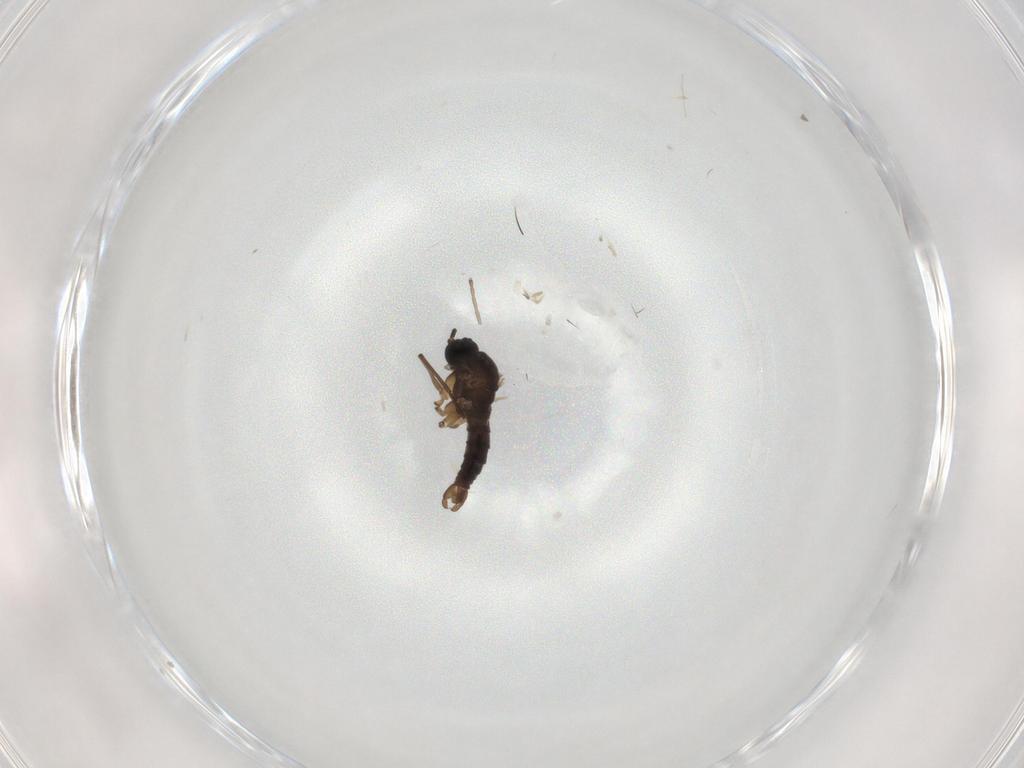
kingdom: Animalia
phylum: Arthropoda
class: Insecta
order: Diptera
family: Sciaridae
